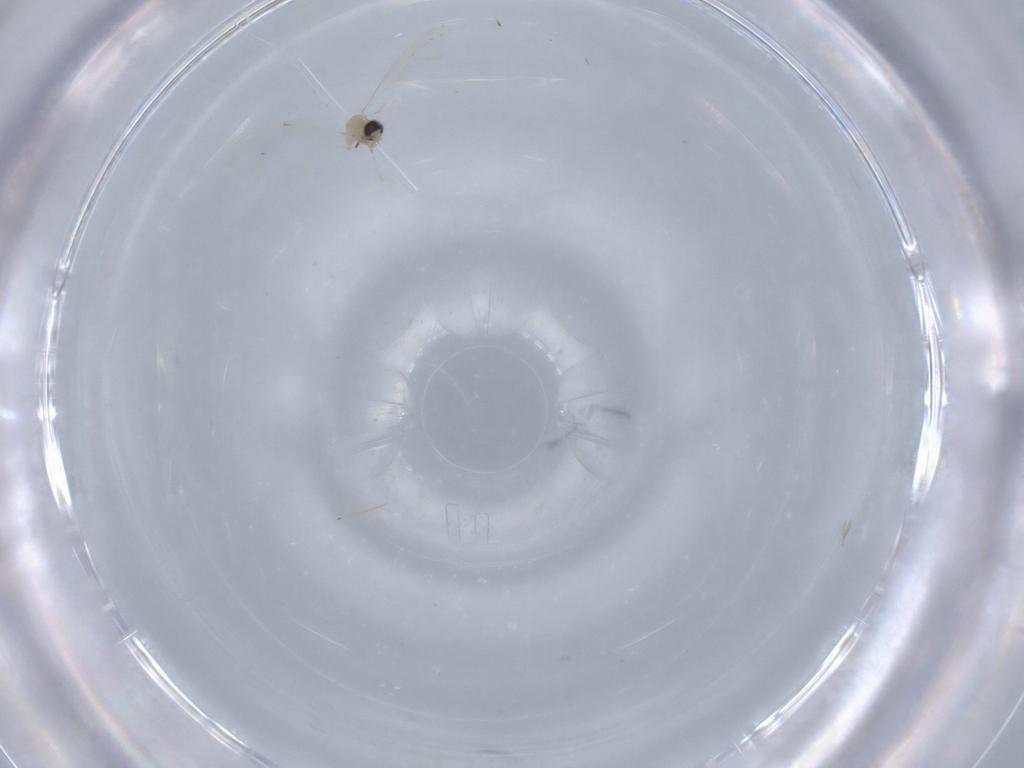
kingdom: Animalia
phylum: Arthropoda
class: Insecta
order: Diptera
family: Cecidomyiidae
